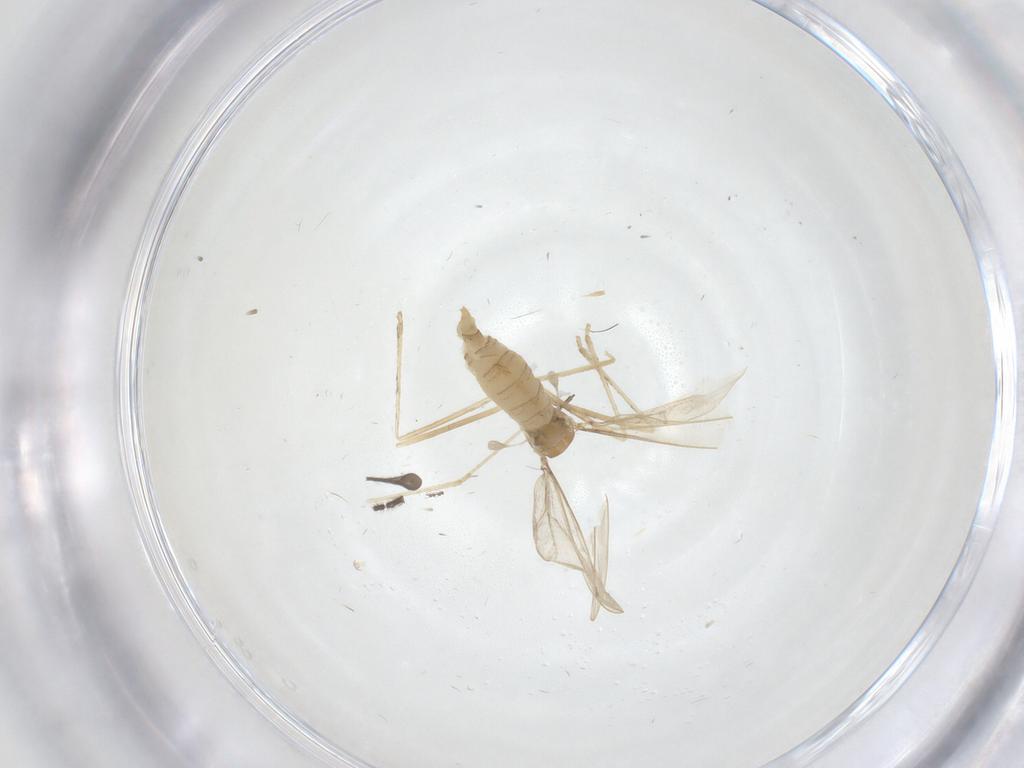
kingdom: Animalia
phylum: Arthropoda
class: Insecta
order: Diptera
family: Cecidomyiidae
